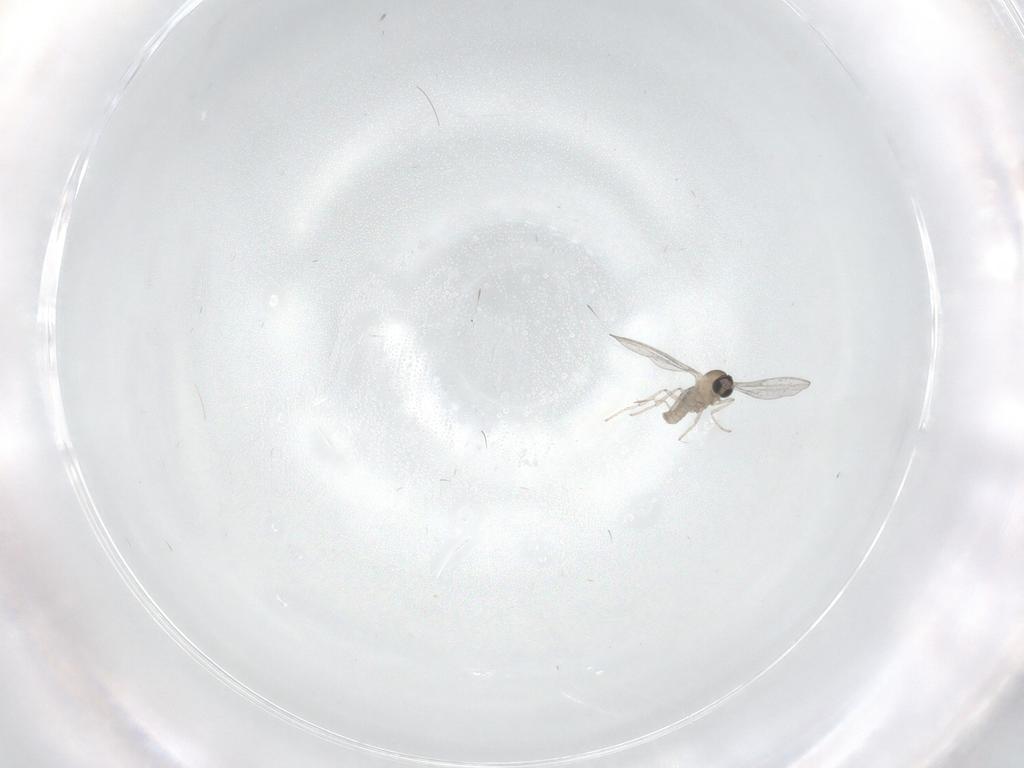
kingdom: Animalia
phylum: Arthropoda
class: Insecta
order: Diptera
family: Cecidomyiidae
